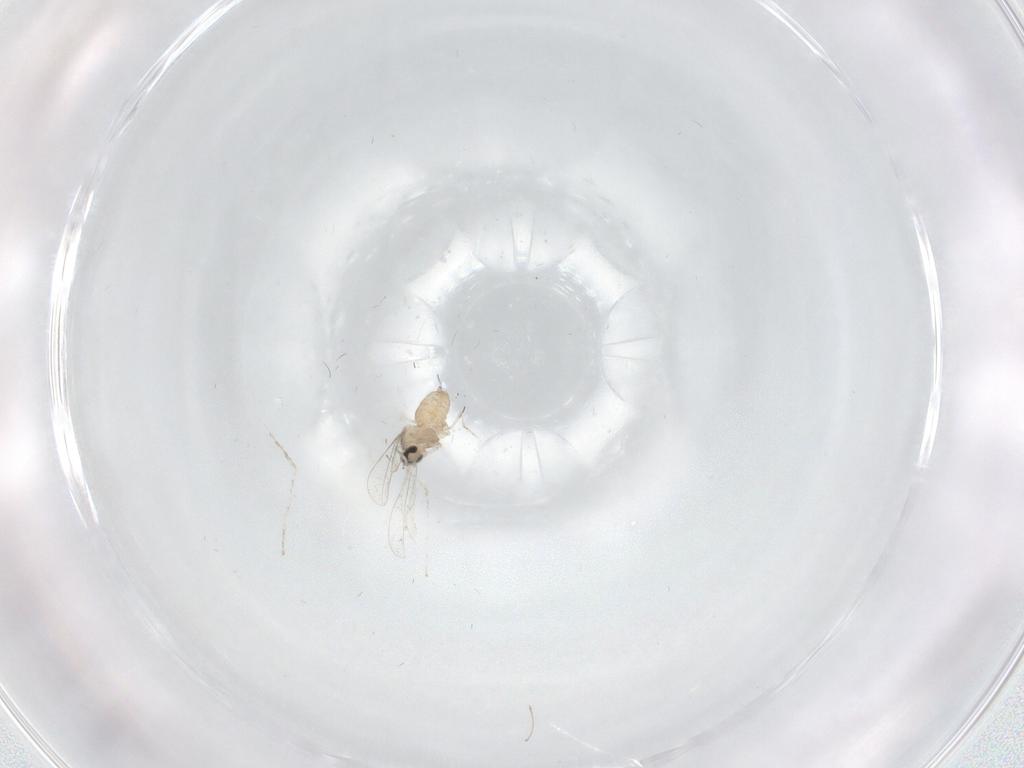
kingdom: Animalia
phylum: Arthropoda
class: Insecta
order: Diptera
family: Cecidomyiidae
